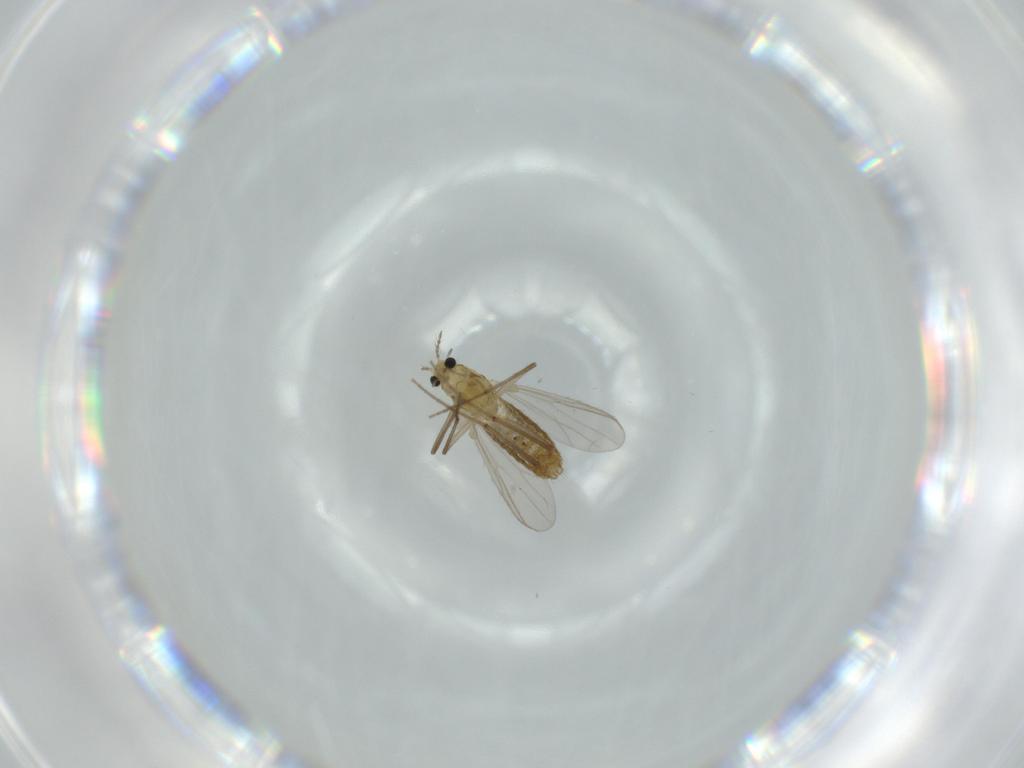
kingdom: Animalia
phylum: Arthropoda
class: Insecta
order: Diptera
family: Chironomidae
